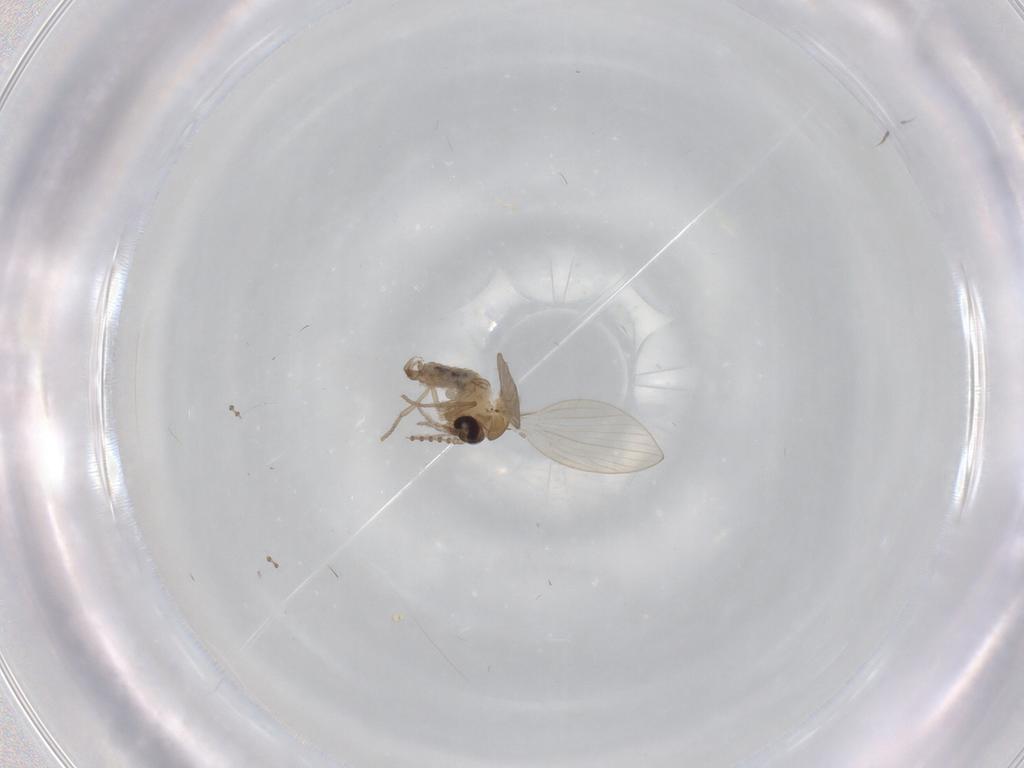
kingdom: Animalia
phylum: Arthropoda
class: Insecta
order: Diptera
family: Psychodidae
